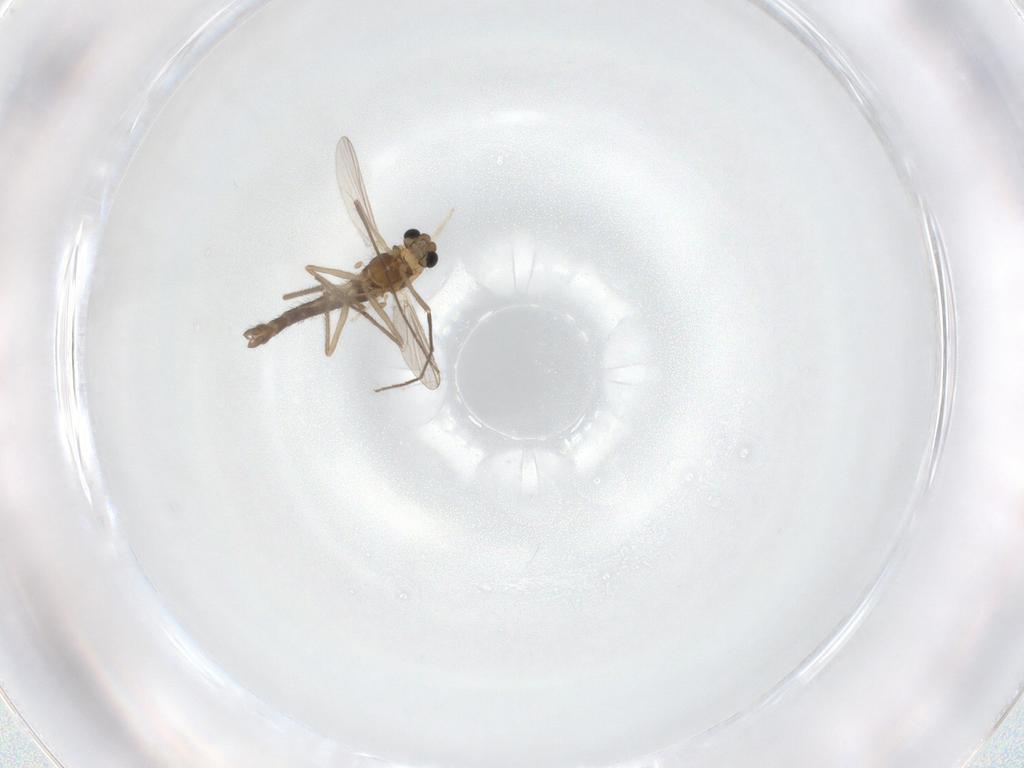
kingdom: Animalia
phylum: Arthropoda
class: Insecta
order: Diptera
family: Chironomidae
